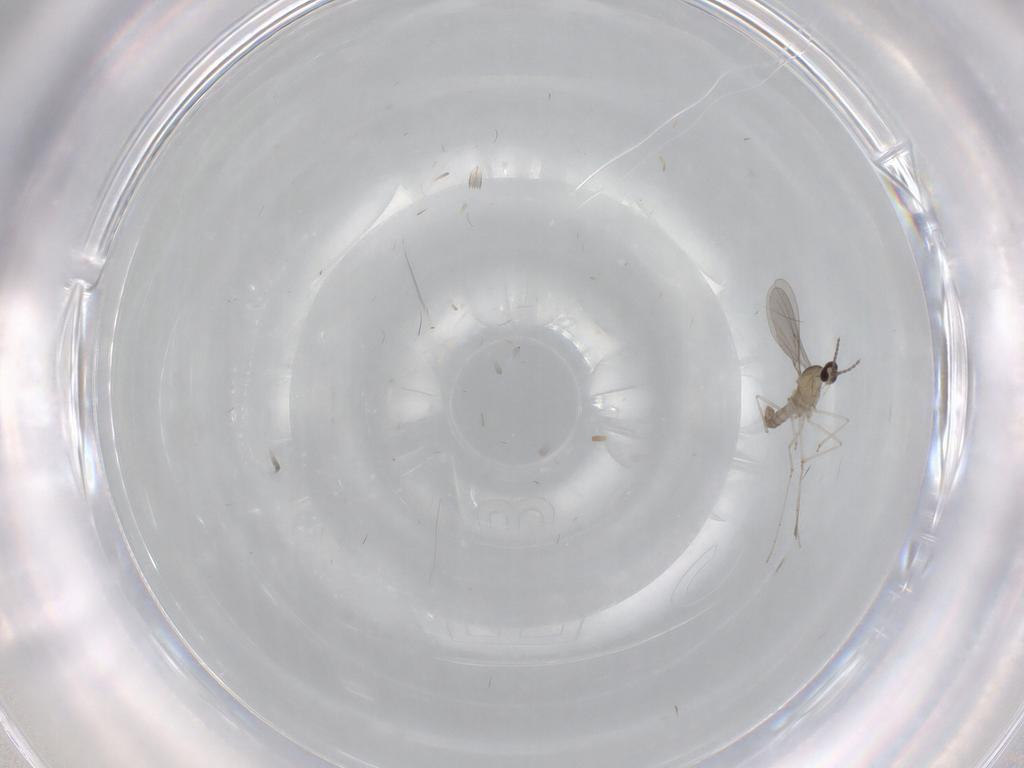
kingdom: Animalia
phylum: Arthropoda
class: Insecta
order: Diptera
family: Cecidomyiidae
